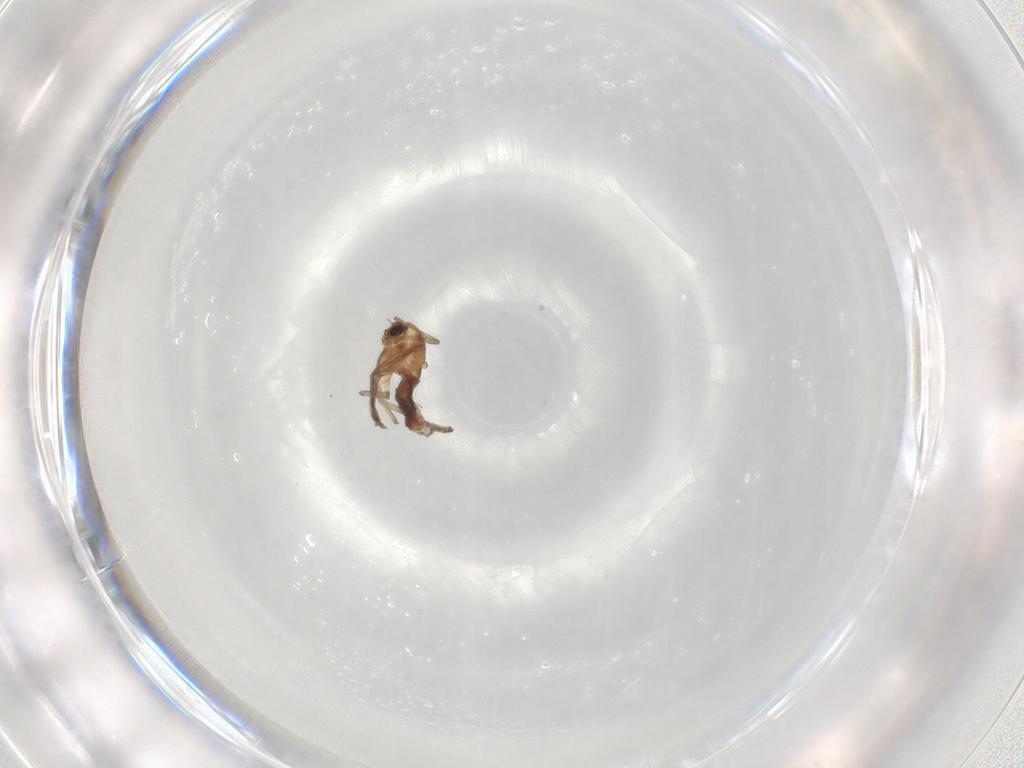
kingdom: Animalia
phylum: Arthropoda
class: Insecta
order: Diptera
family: Chironomidae
